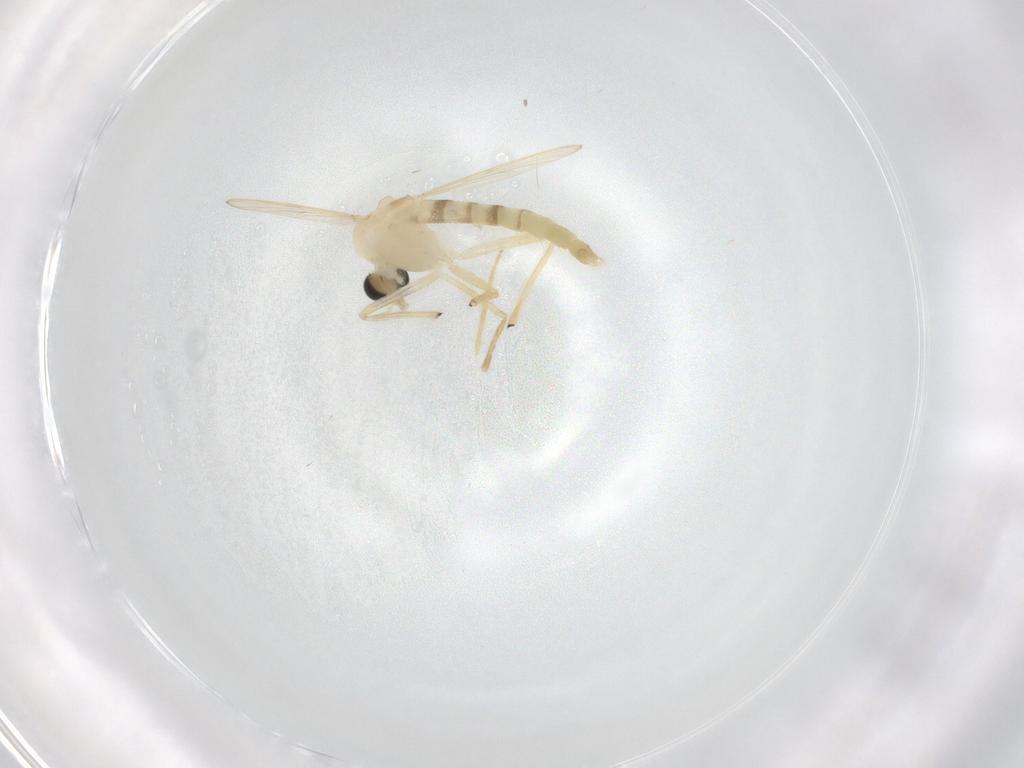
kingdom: Animalia
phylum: Arthropoda
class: Insecta
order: Diptera
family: Chironomidae
